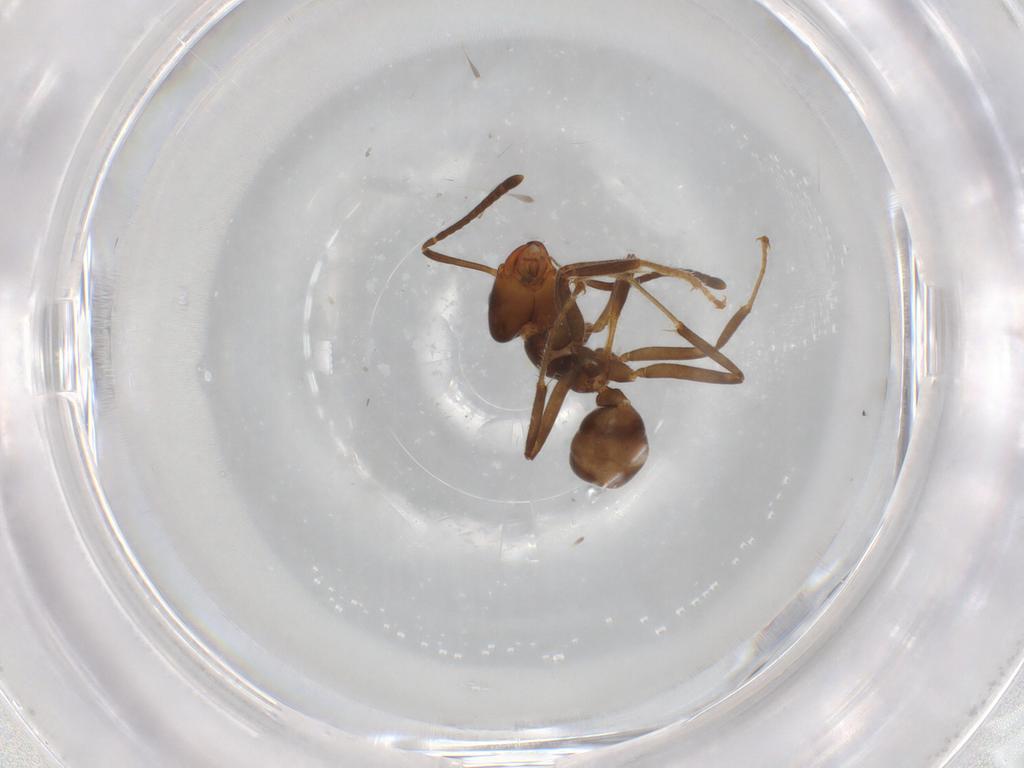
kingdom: Animalia
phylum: Arthropoda
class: Insecta
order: Hymenoptera
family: Formicidae
